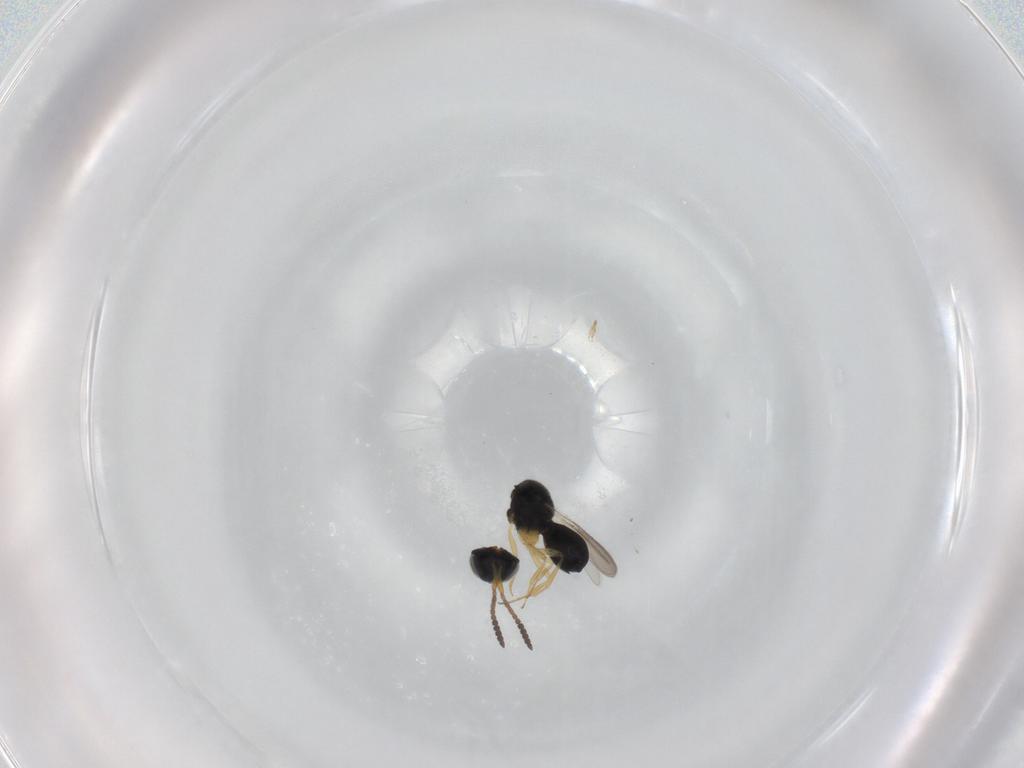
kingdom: Animalia
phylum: Arthropoda
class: Insecta
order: Hymenoptera
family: Scelionidae
